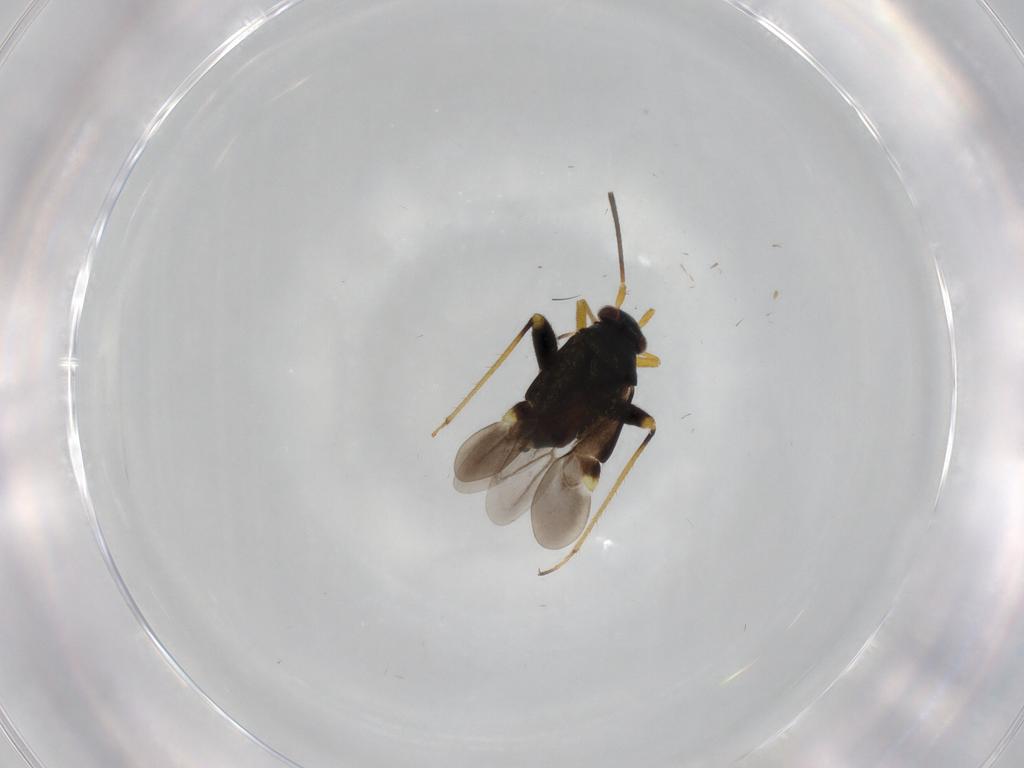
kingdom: Animalia
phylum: Arthropoda
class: Insecta
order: Hemiptera
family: Miridae
